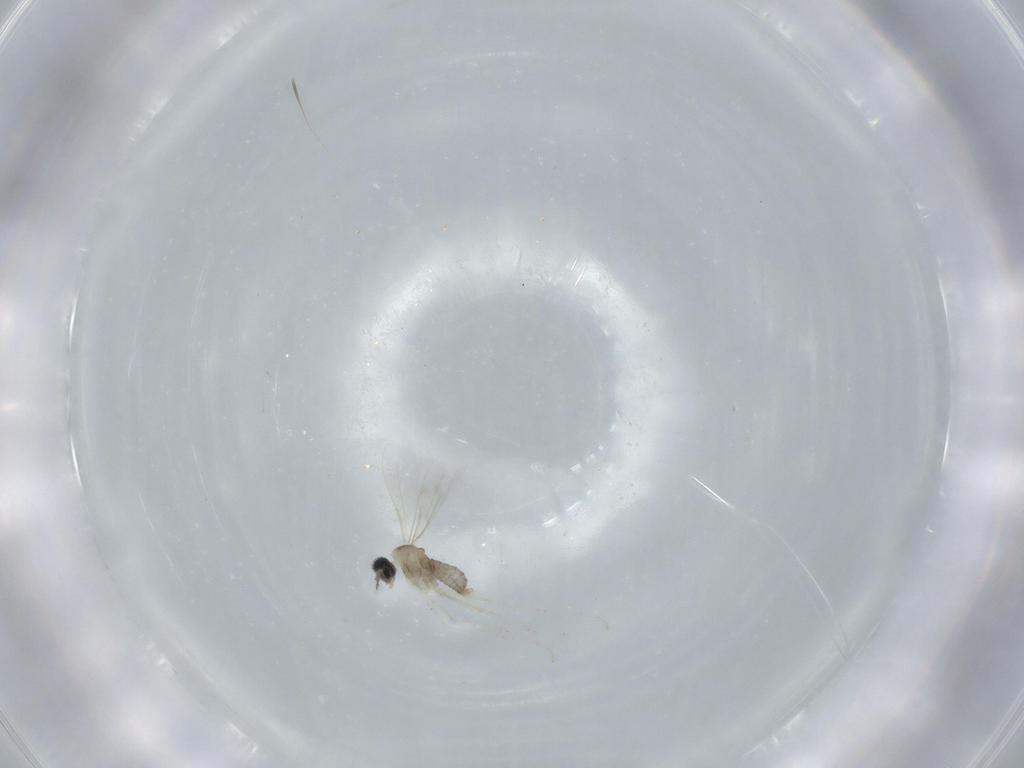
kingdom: Animalia
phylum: Arthropoda
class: Insecta
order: Diptera
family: Cecidomyiidae
